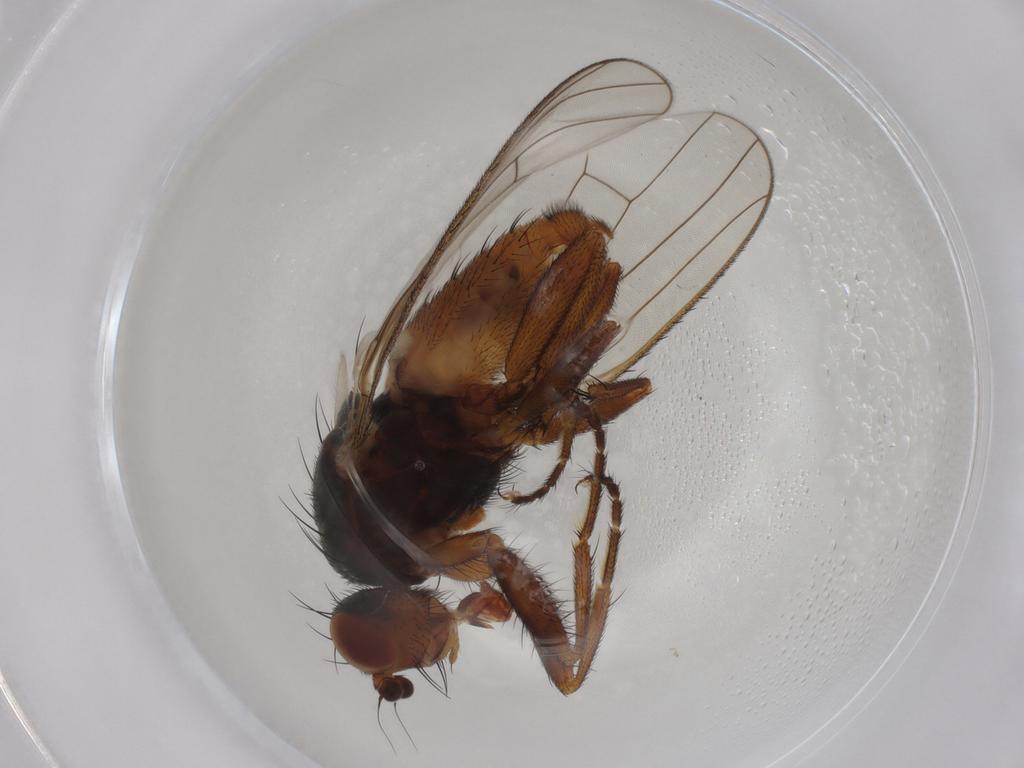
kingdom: Animalia
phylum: Arthropoda
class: Insecta
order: Diptera
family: Heleomyzidae
